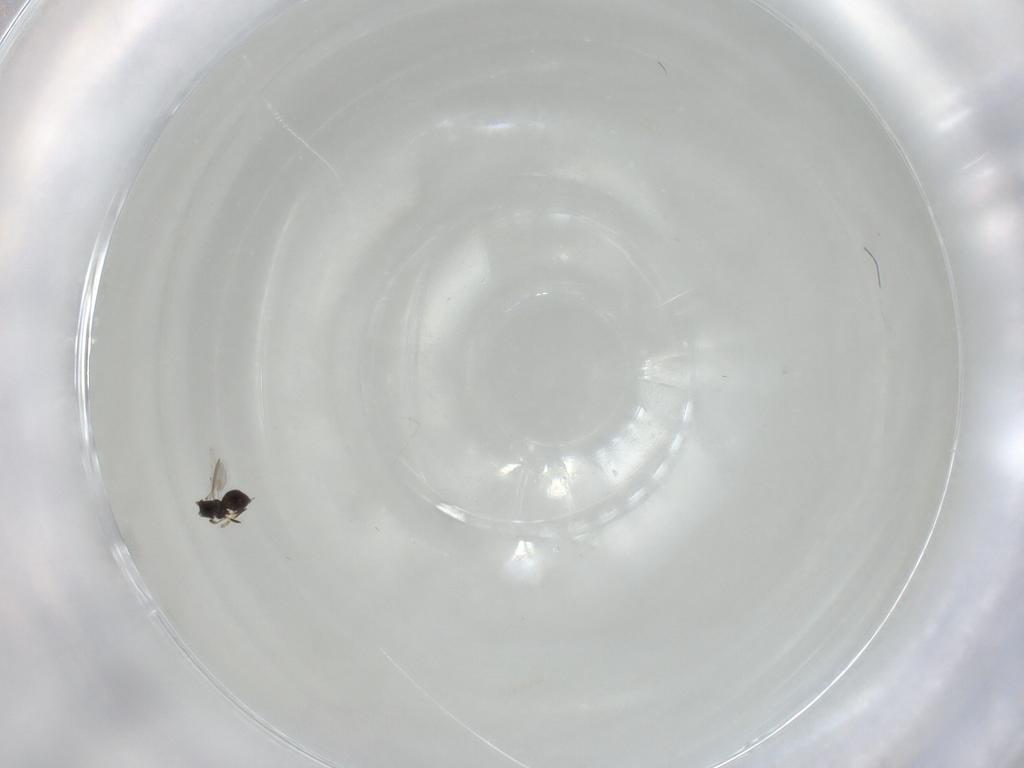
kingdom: Animalia
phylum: Arthropoda
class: Insecta
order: Hymenoptera
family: Scelionidae
